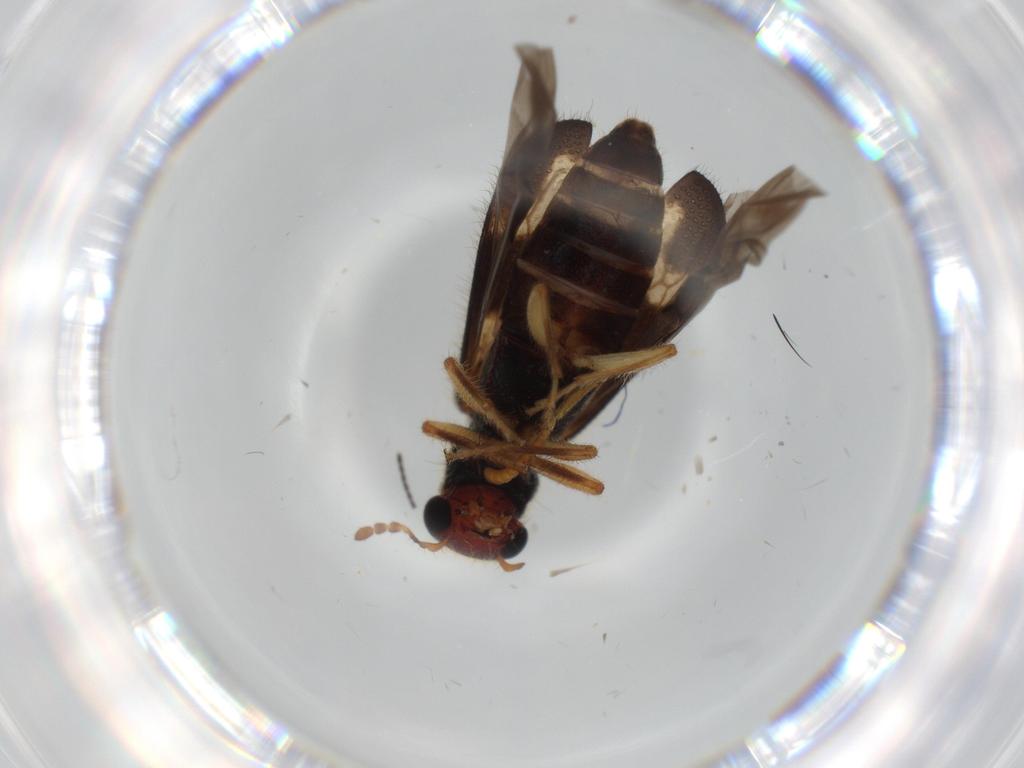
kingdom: Animalia
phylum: Arthropoda
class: Insecta
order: Coleoptera
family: Cleridae
